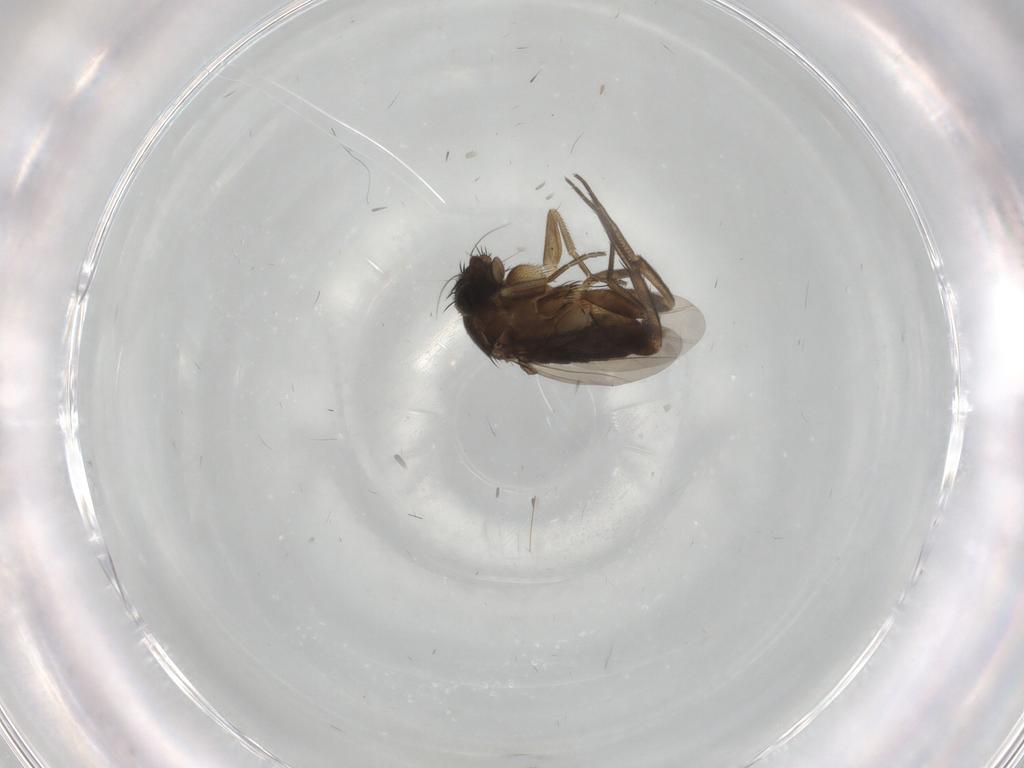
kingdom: Animalia
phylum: Arthropoda
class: Insecta
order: Diptera
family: Phoridae
